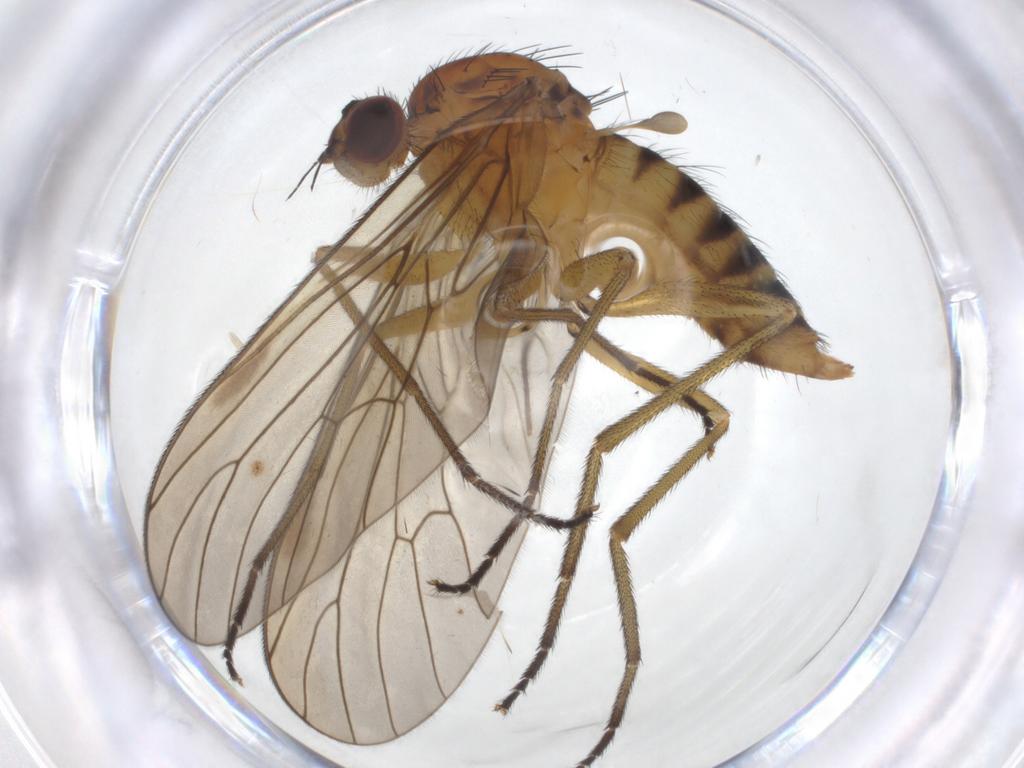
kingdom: Animalia
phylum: Arthropoda
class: Insecta
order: Diptera
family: Brachystomatidae
